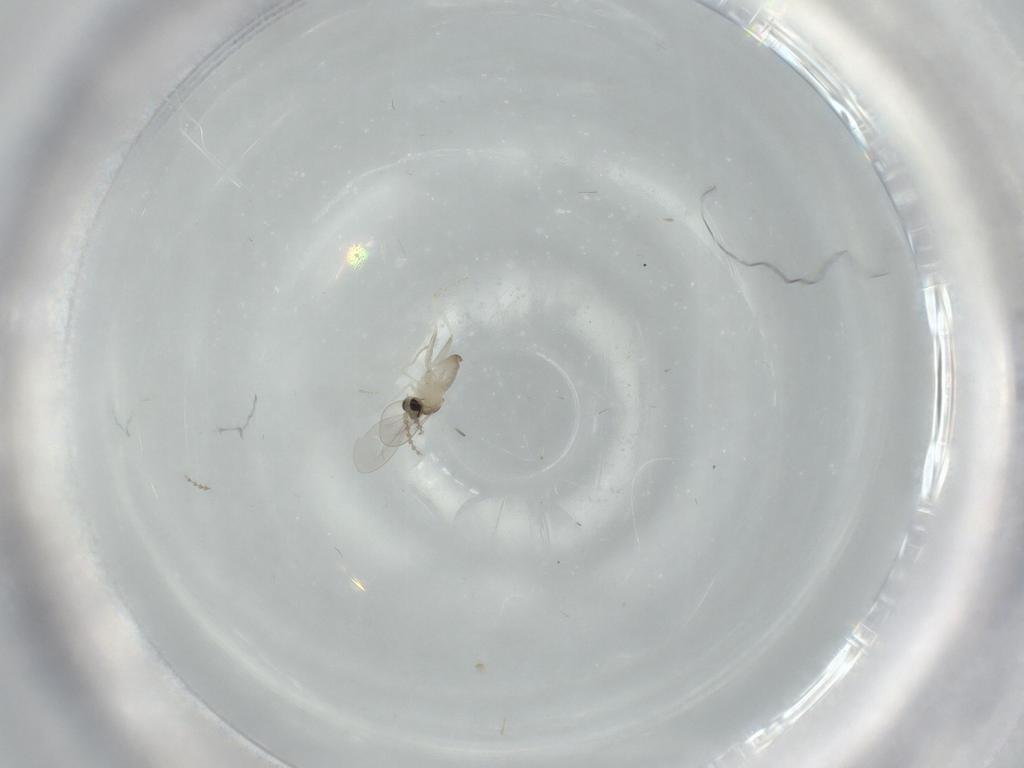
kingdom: Animalia
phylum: Arthropoda
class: Insecta
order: Diptera
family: Cecidomyiidae
